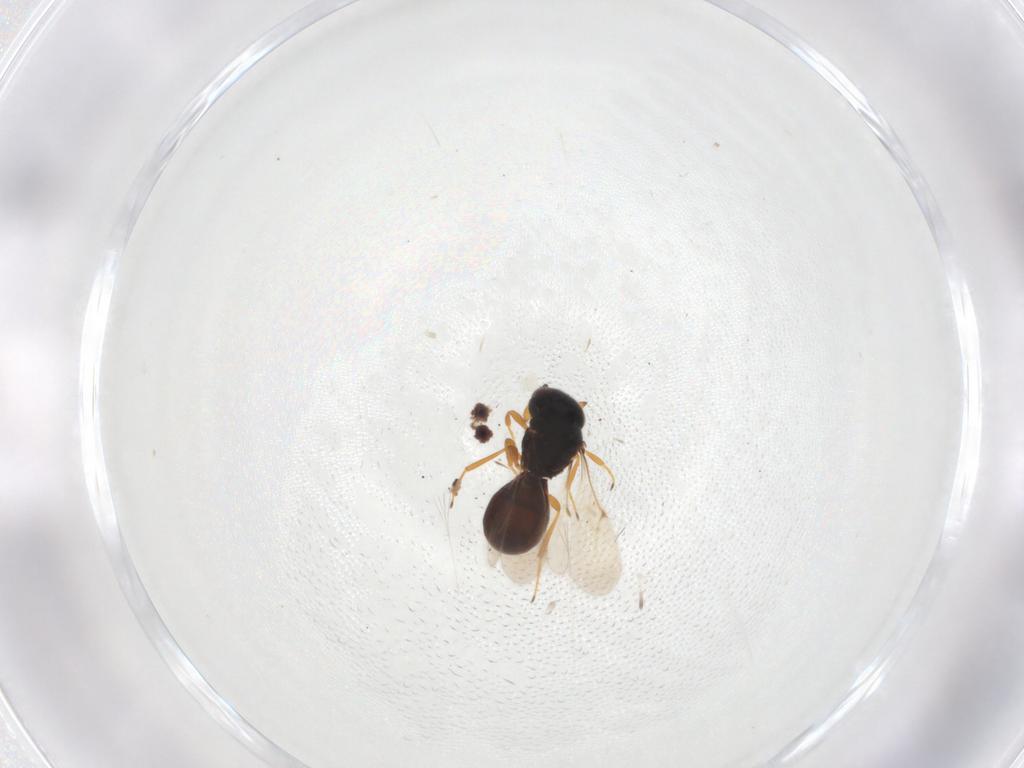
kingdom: Animalia
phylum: Arthropoda
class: Insecta
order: Hymenoptera
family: Scelionidae
